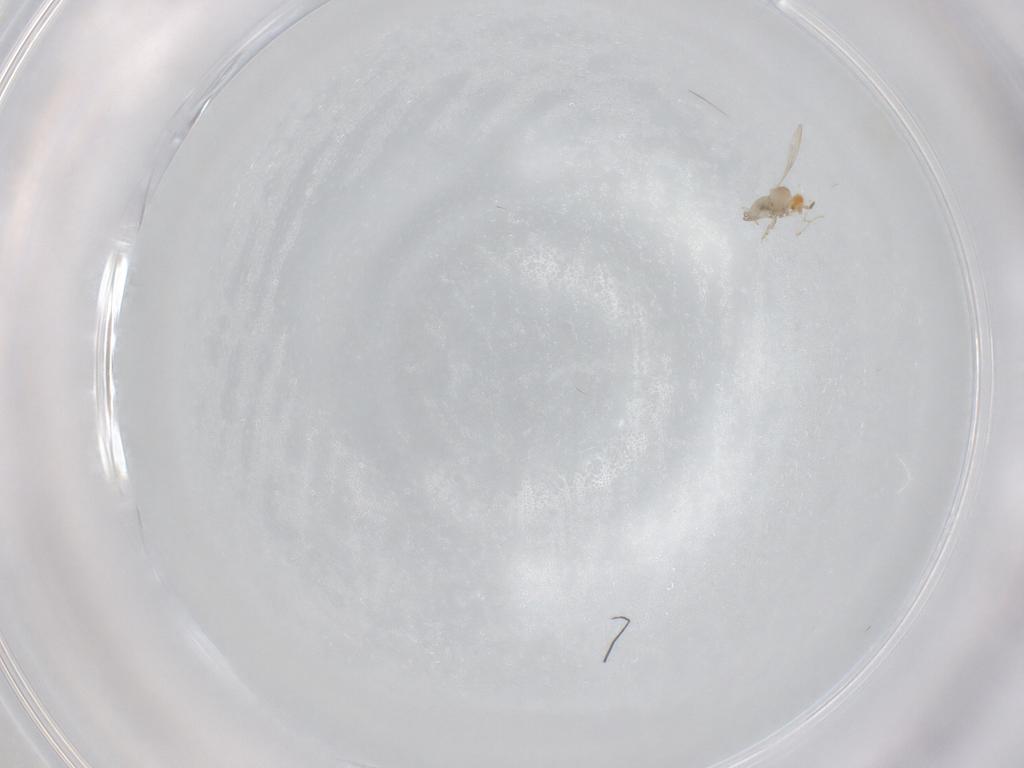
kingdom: Animalia
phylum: Arthropoda
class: Insecta
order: Diptera
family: Cecidomyiidae
